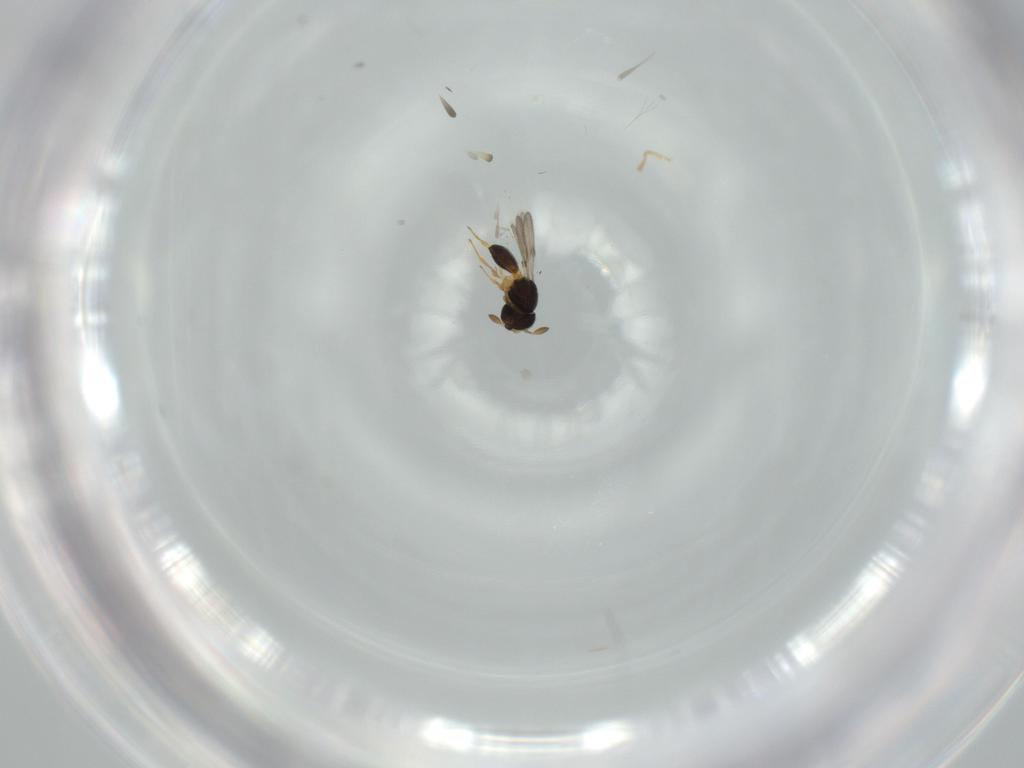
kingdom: Animalia
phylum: Arthropoda
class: Insecta
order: Hymenoptera
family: Scelionidae
